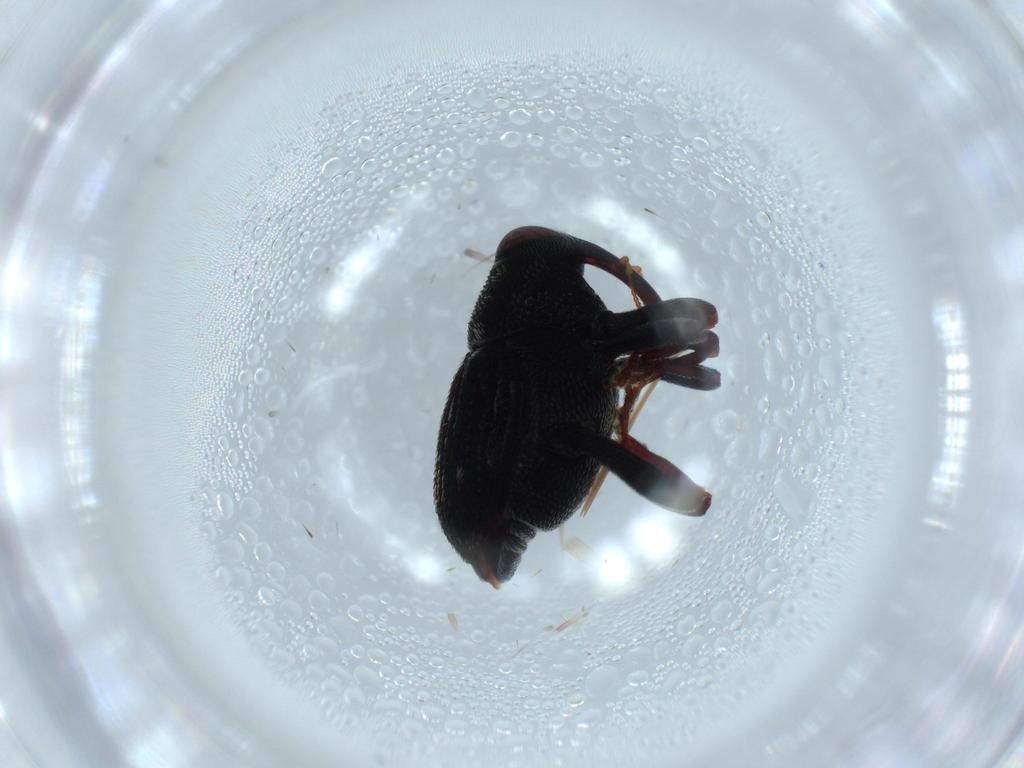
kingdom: Animalia
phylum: Arthropoda
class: Insecta
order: Coleoptera
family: Curculionidae
